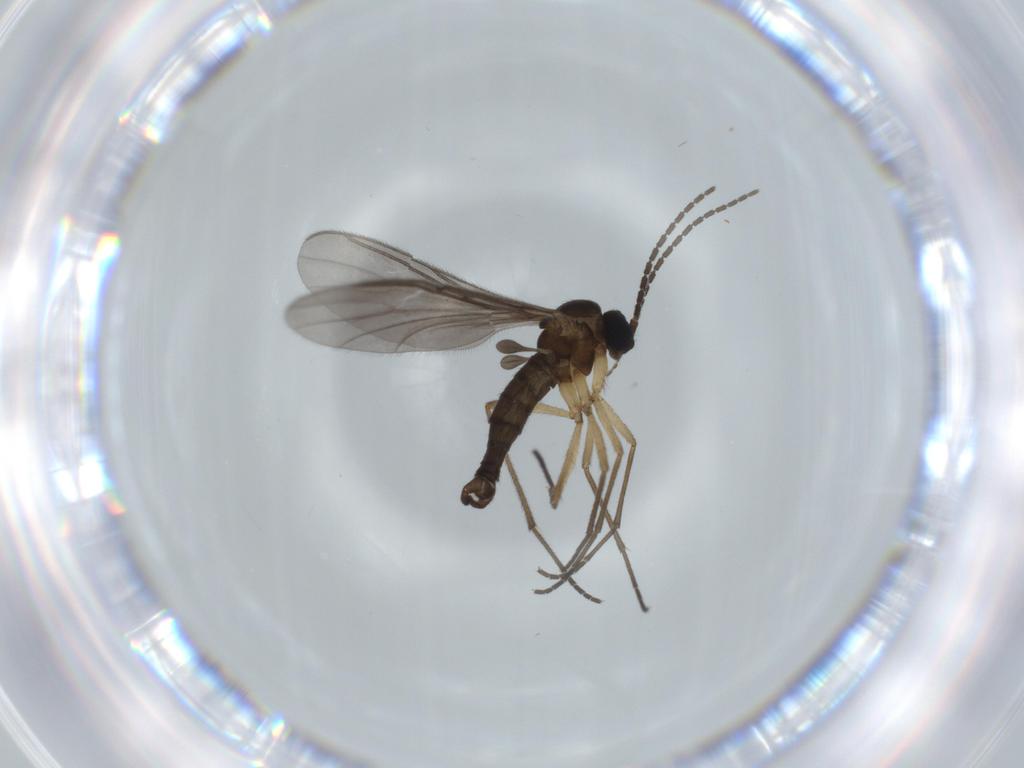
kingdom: Animalia
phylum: Arthropoda
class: Insecta
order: Diptera
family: Sciaridae
